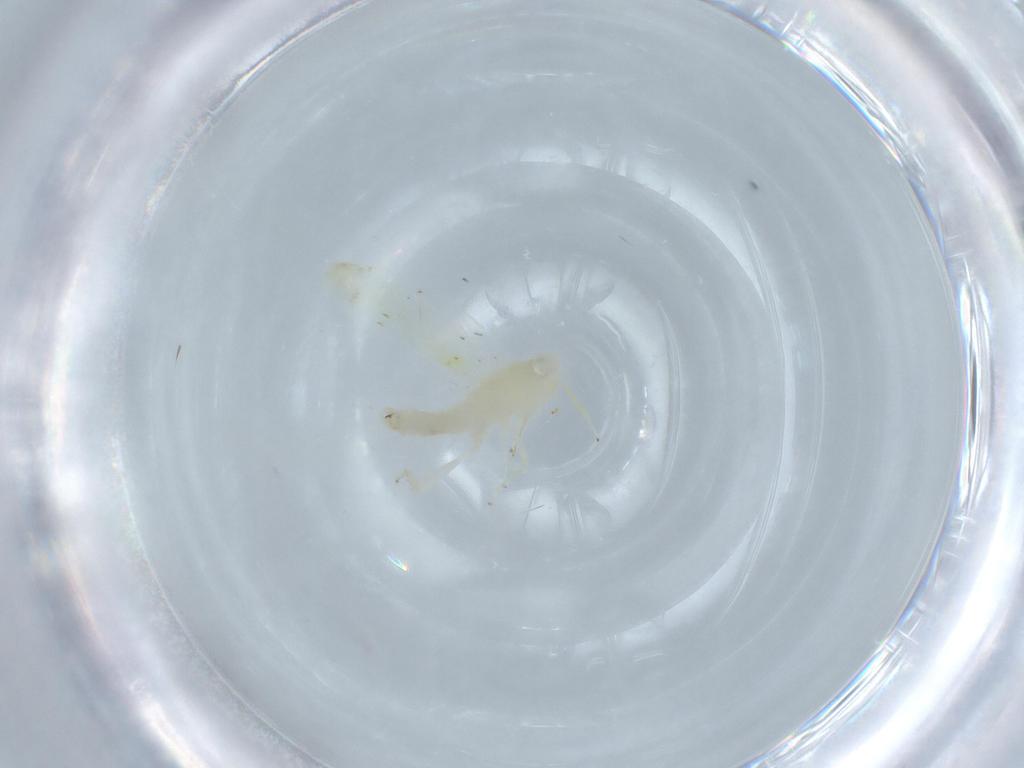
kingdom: Animalia
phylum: Arthropoda
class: Insecta
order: Hemiptera
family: Cicadellidae
